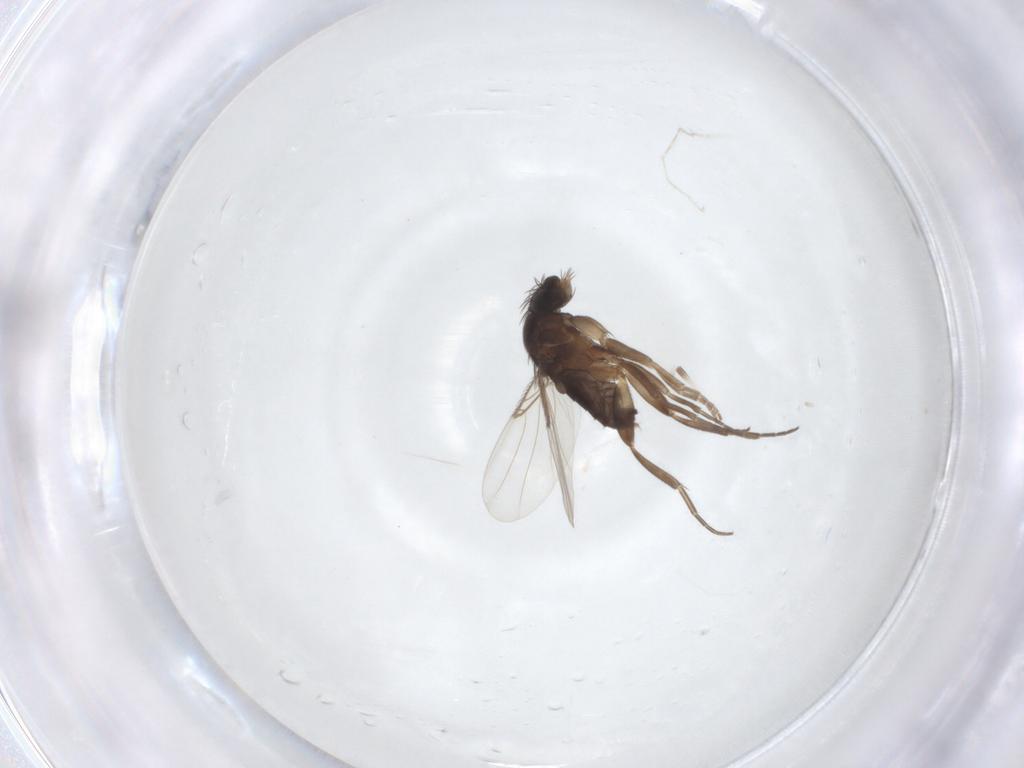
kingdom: Animalia
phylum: Arthropoda
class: Insecta
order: Diptera
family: Phoridae
